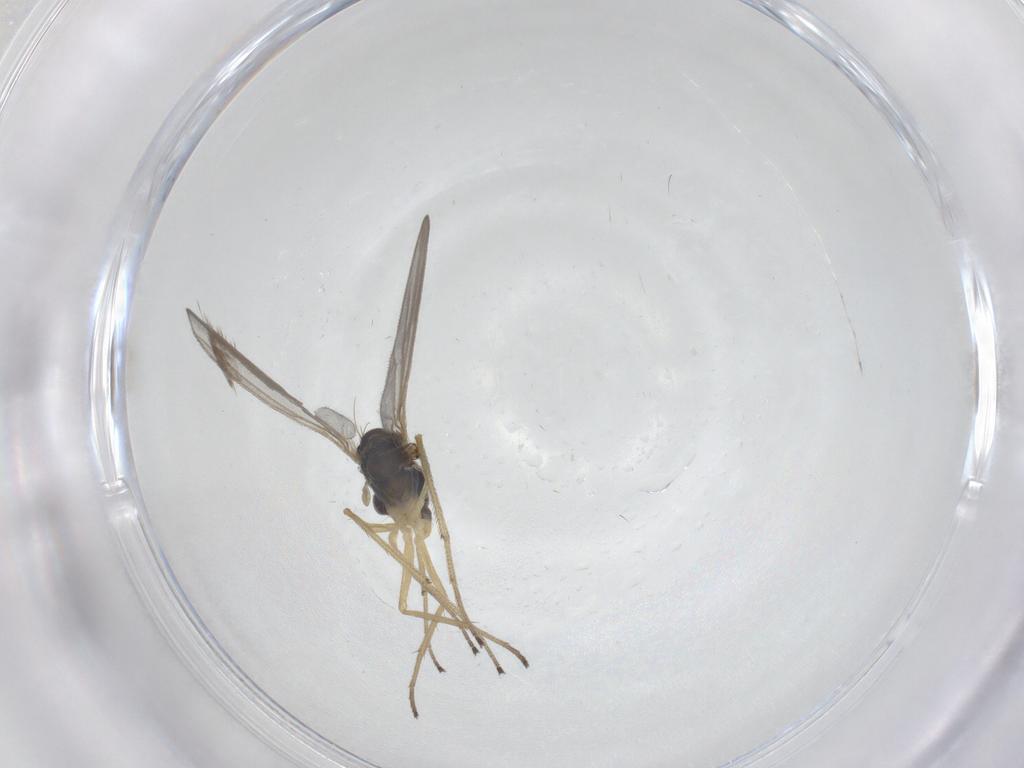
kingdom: Animalia
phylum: Arthropoda
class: Insecta
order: Diptera
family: Dolichopodidae
